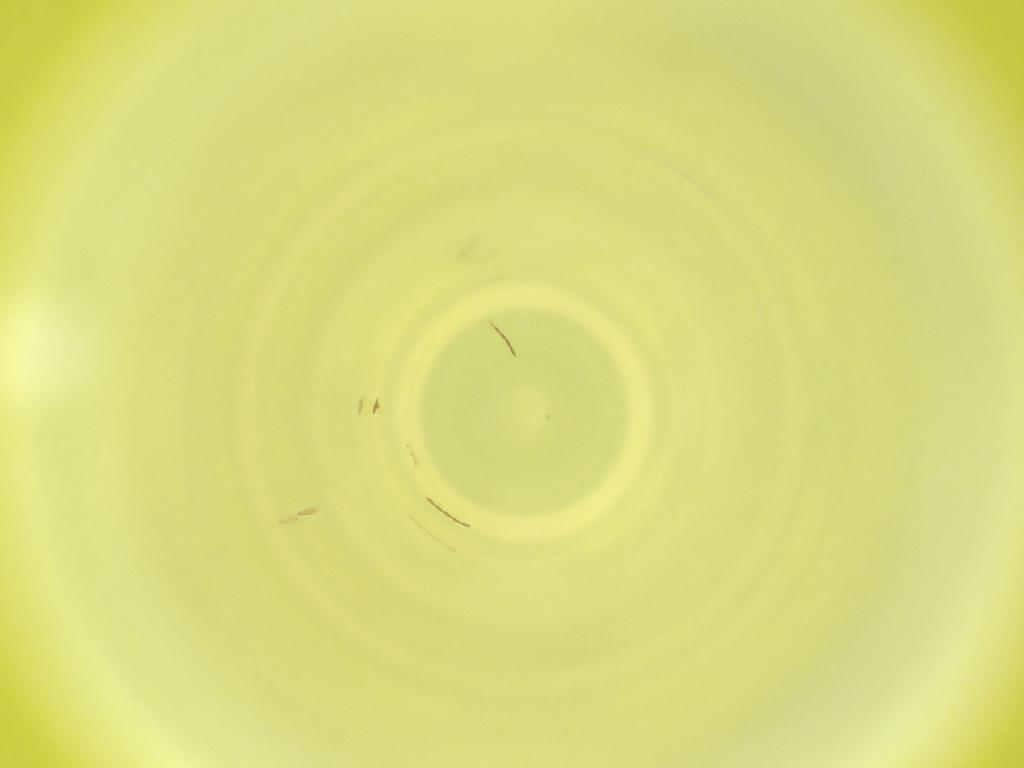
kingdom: Animalia
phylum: Arthropoda
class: Insecta
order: Diptera
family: Cecidomyiidae
